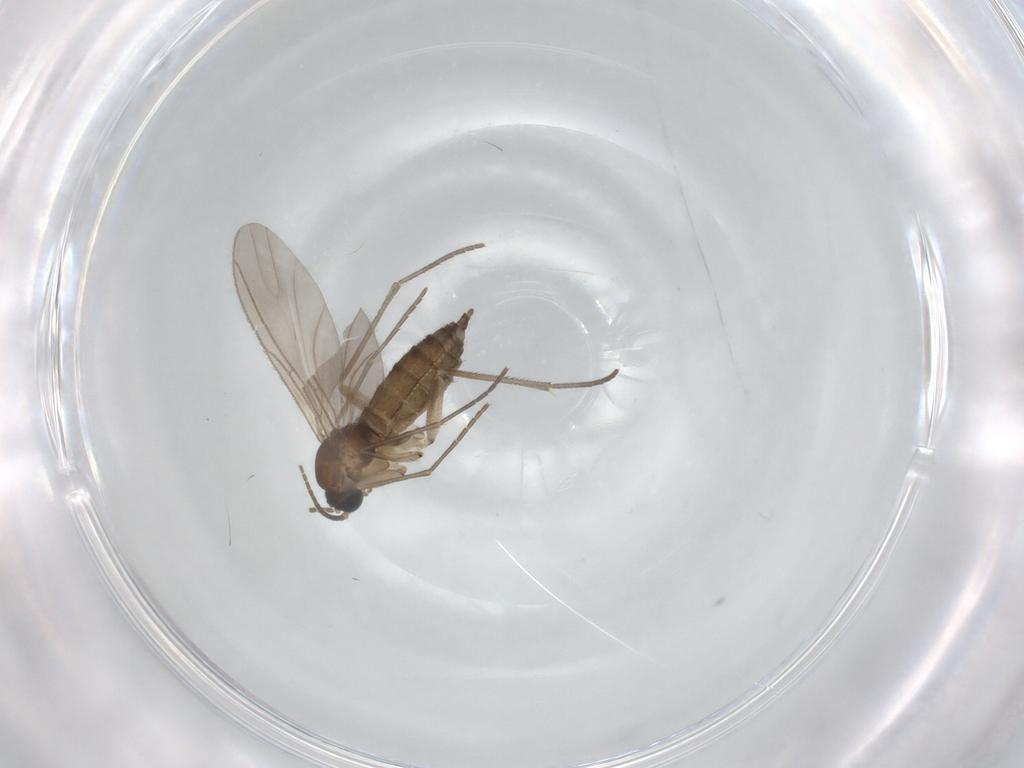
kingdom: Animalia
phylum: Arthropoda
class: Insecta
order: Diptera
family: Sciaridae
